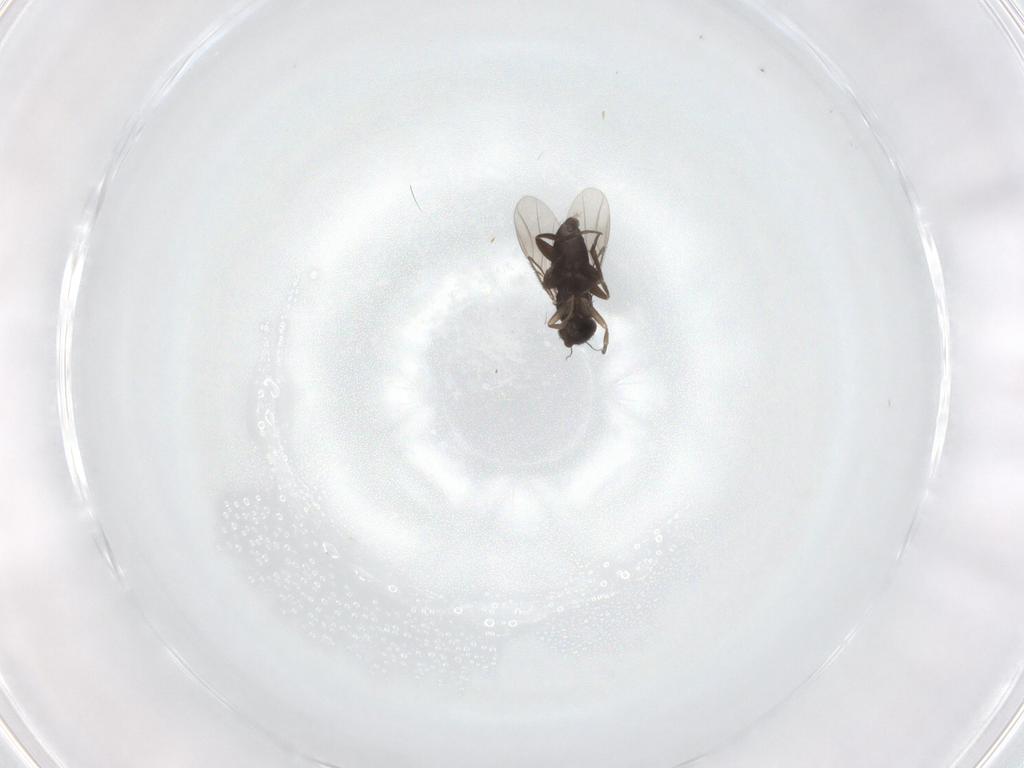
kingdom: Animalia
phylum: Arthropoda
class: Insecta
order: Diptera
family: Phoridae
